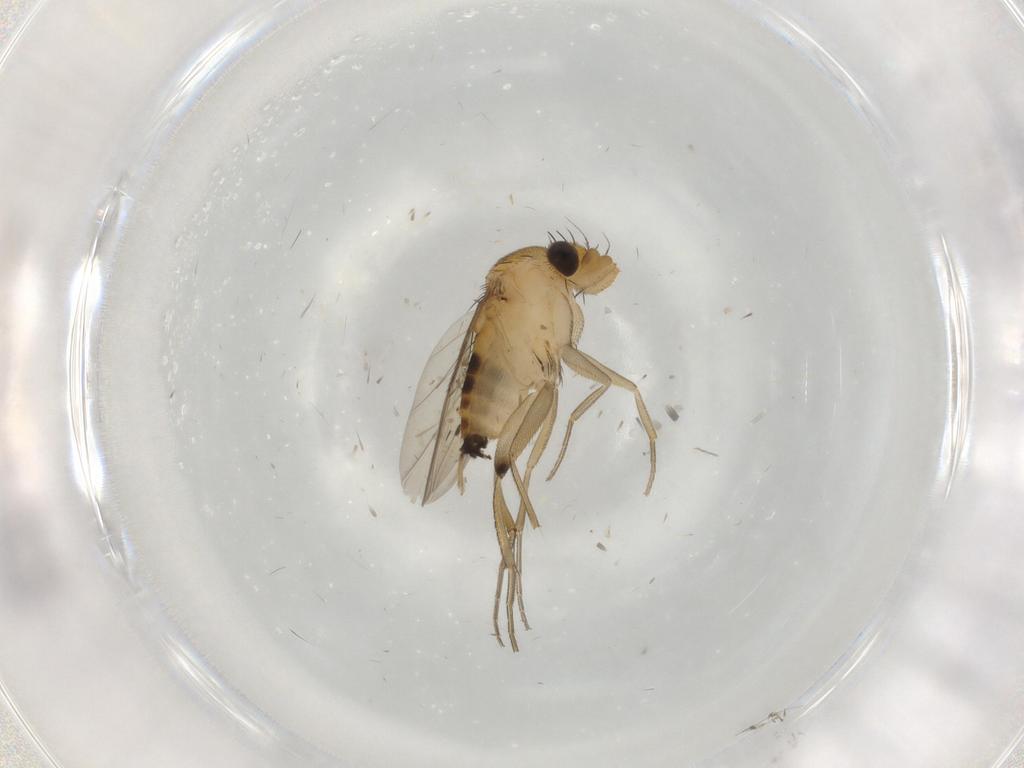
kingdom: Animalia
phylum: Arthropoda
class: Insecta
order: Diptera
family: Phoridae
